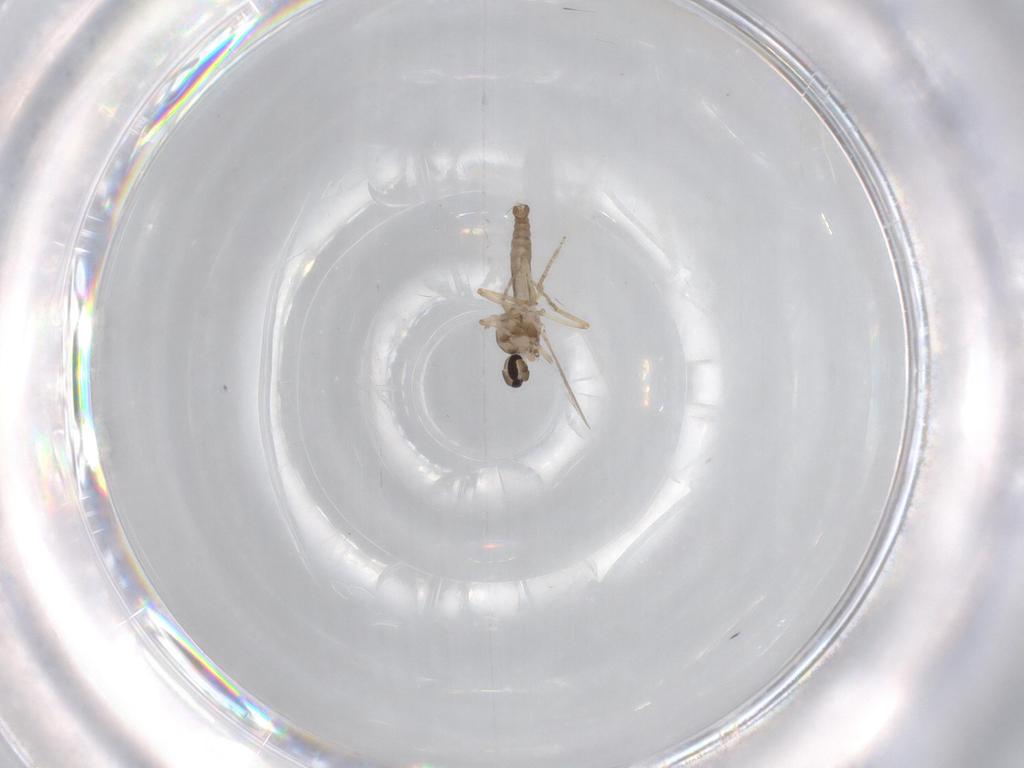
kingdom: Animalia
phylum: Arthropoda
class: Insecta
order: Diptera
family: Ceratopogonidae
